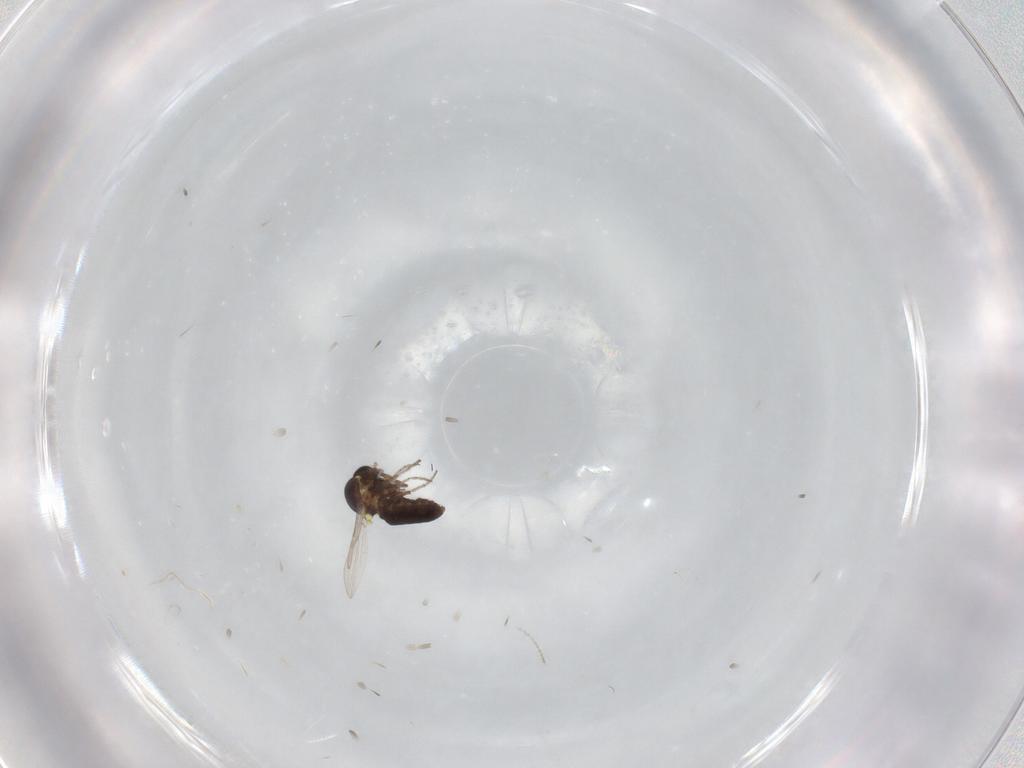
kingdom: Animalia
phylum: Arthropoda
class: Insecta
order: Diptera
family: Ceratopogonidae
